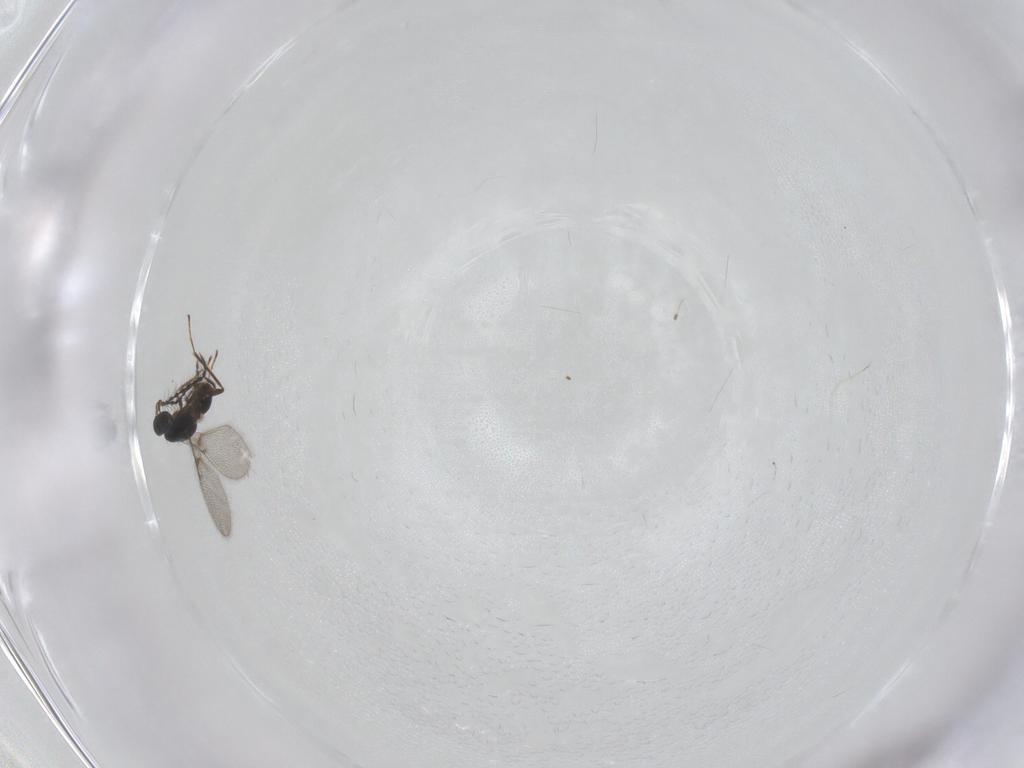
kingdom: Animalia
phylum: Arthropoda
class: Insecta
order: Hymenoptera
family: Mymaridae
